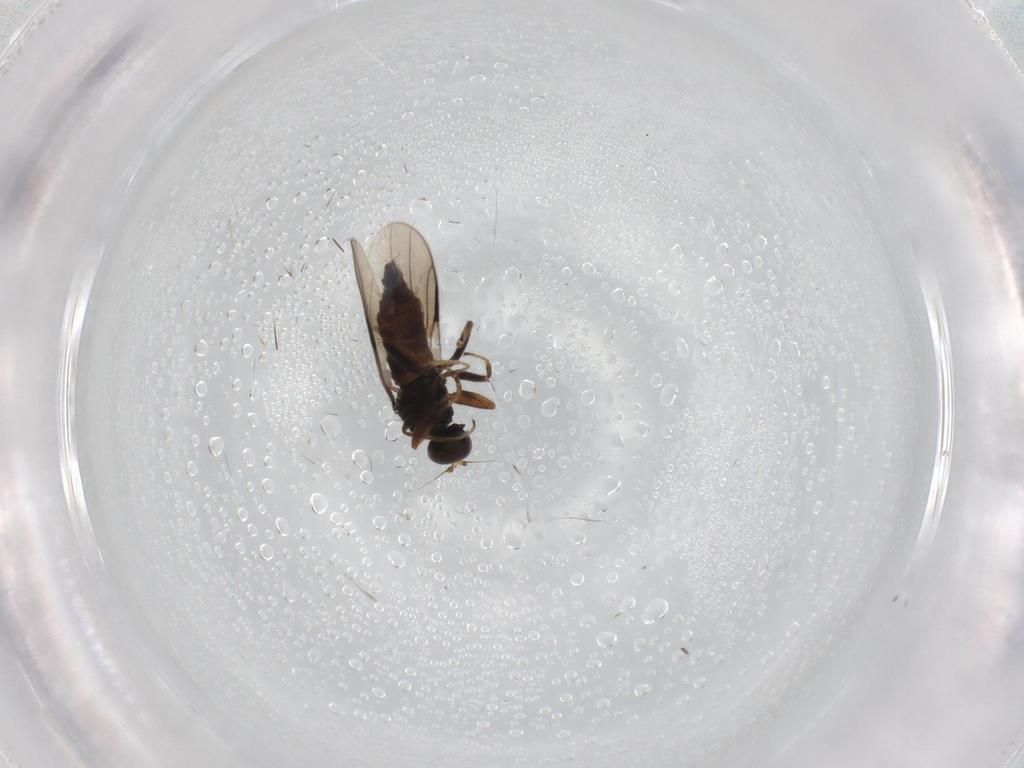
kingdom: Animalia
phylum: Arthropoda
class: Insecta
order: Diptera
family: Hybotidae
